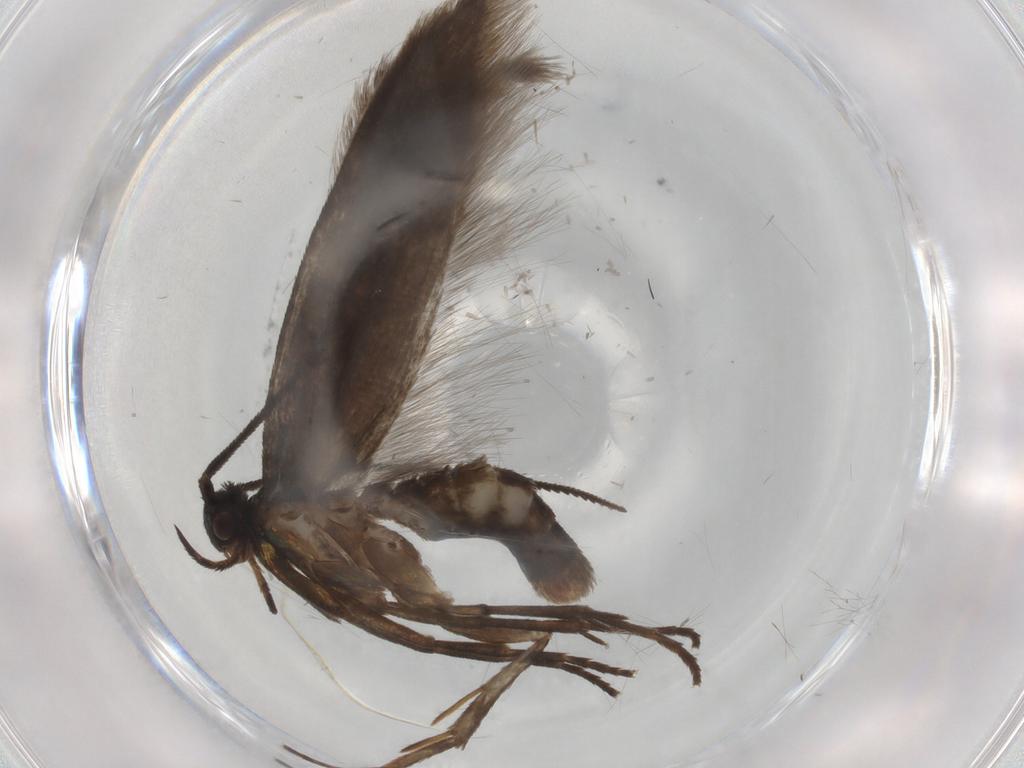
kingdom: Animalia
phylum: Arthropoda
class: Insecta
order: Lepidoptera
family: Argyresthiidae
